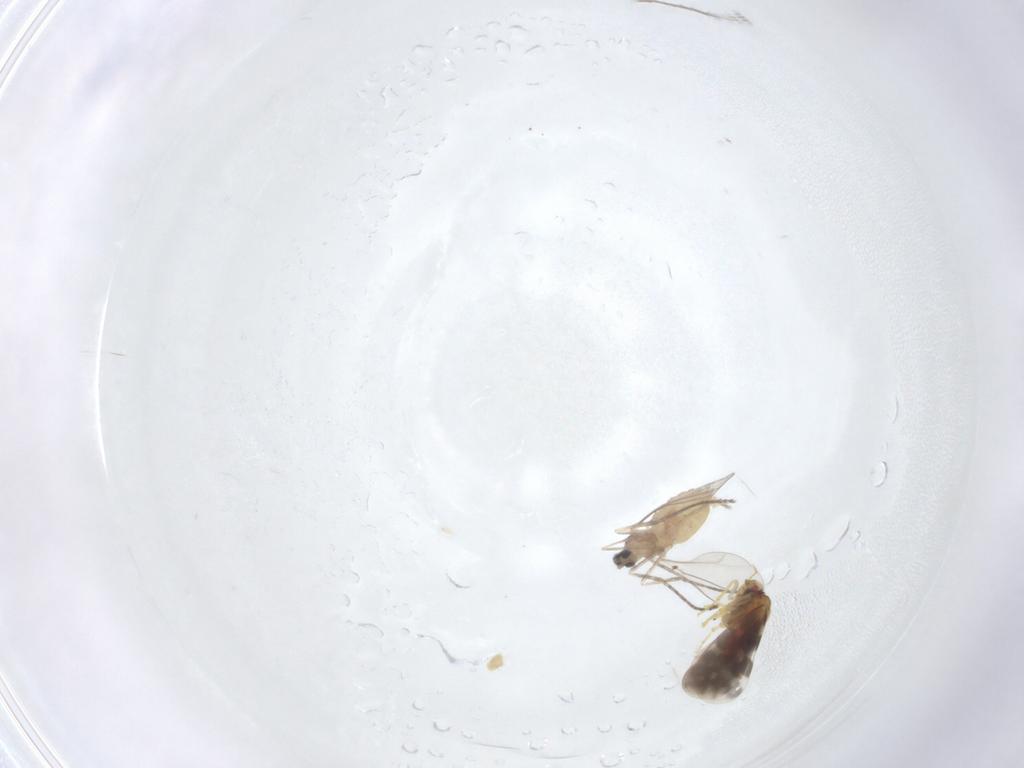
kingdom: Animalia
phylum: Arthropoda
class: Insecta
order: Diptera
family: Cecidomyiidae
